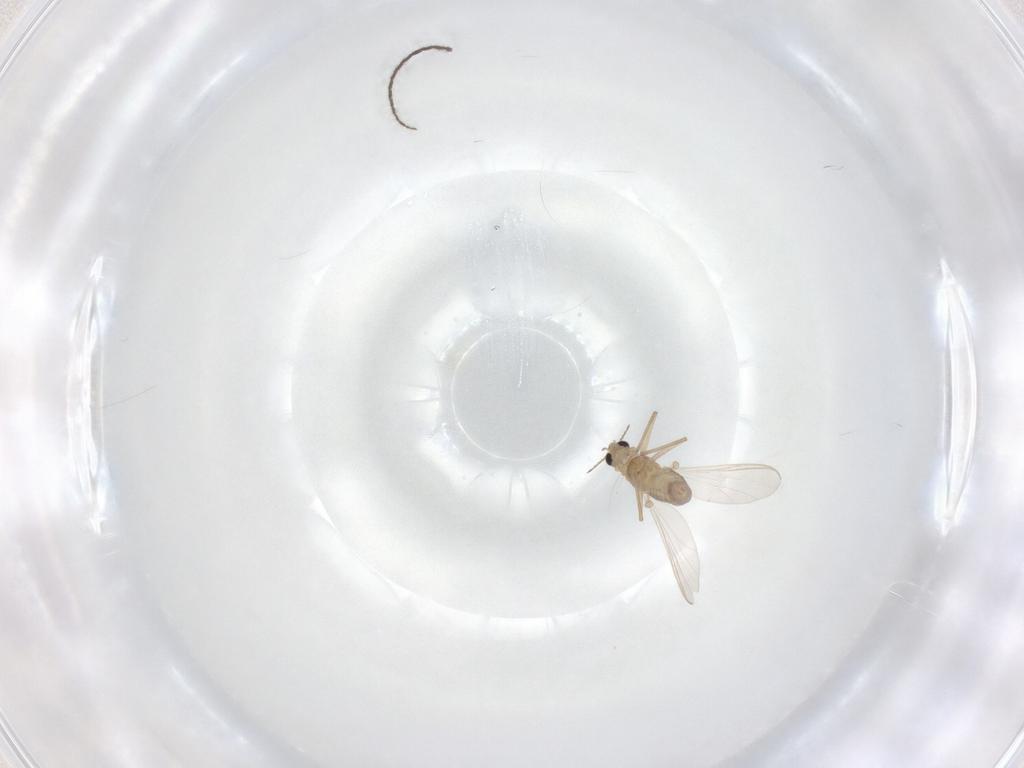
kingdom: Animalia
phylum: Arthropoda
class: Insecta
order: Diptera
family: Chironomidae
